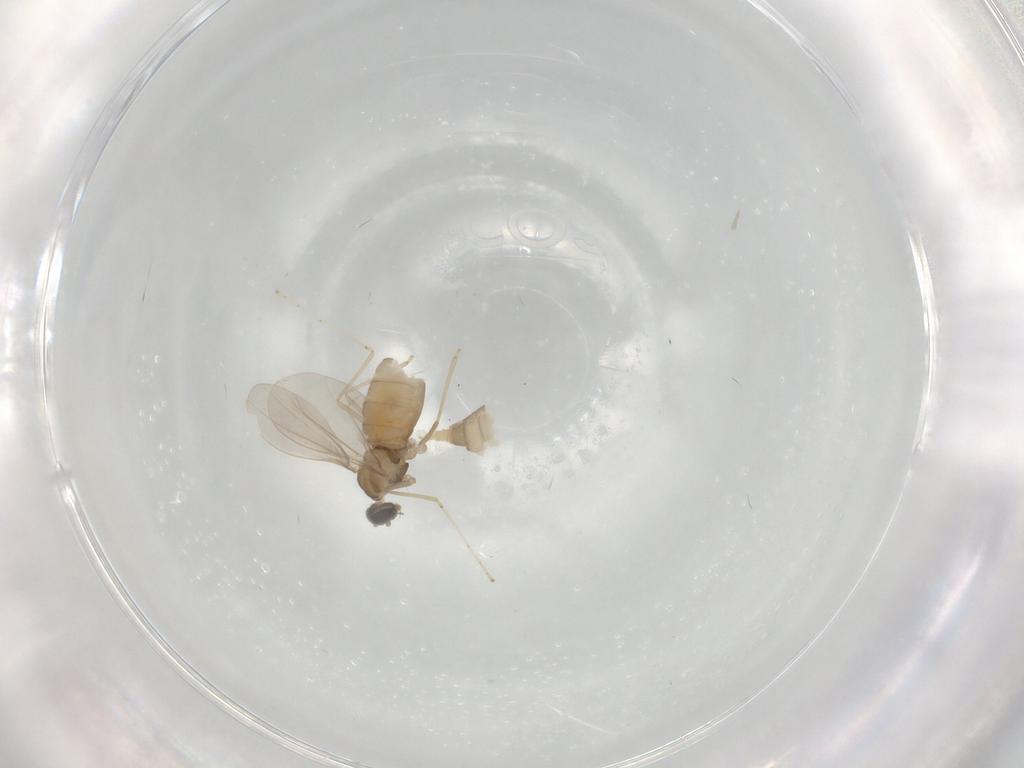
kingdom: Animalia
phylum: Arthropoda
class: Insecta
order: Diptera
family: Cecidomyiidae
